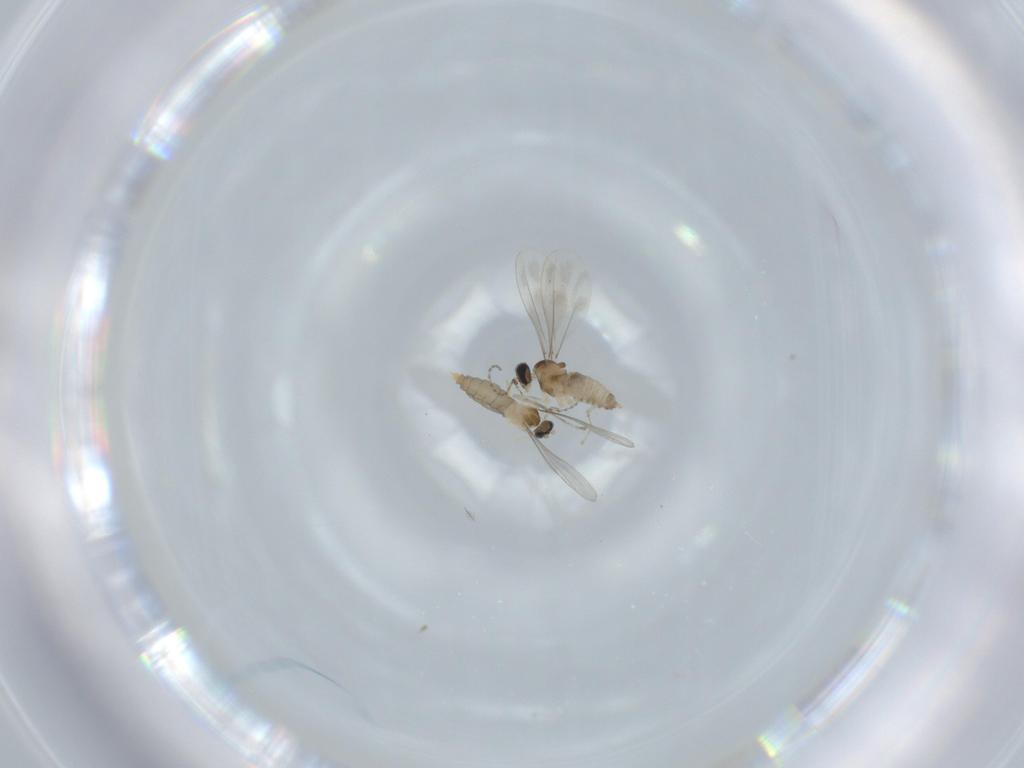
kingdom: Animalia
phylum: Arthropoda
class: Insecta
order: Diptera
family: Cecidomyiidae
